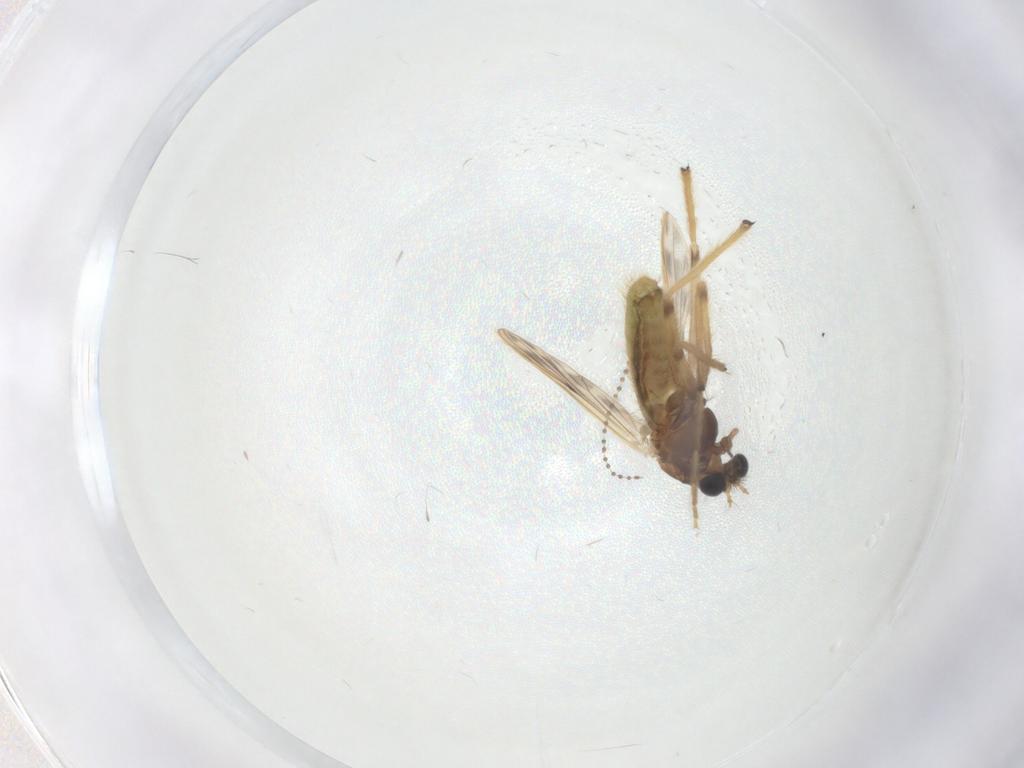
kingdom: Animalia
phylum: Arthropoda
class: Insecta
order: Diptera
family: Chironomidae
